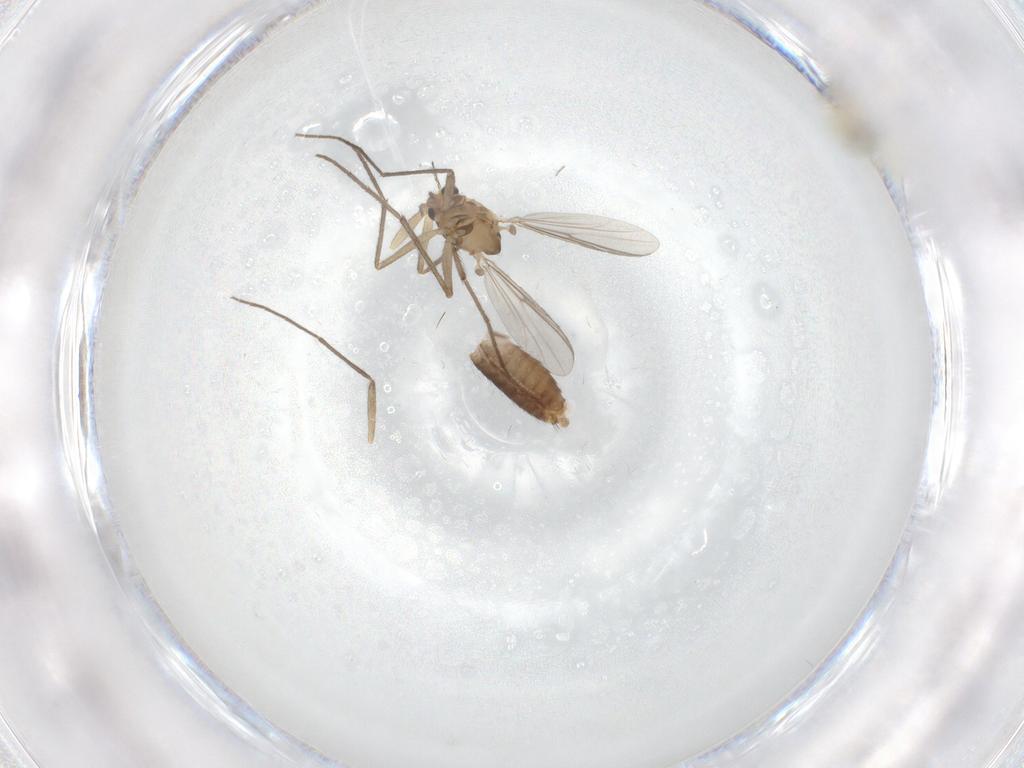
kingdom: Animalia
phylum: Arthropoda
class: Insecta
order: Diptera
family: Chironomidae
